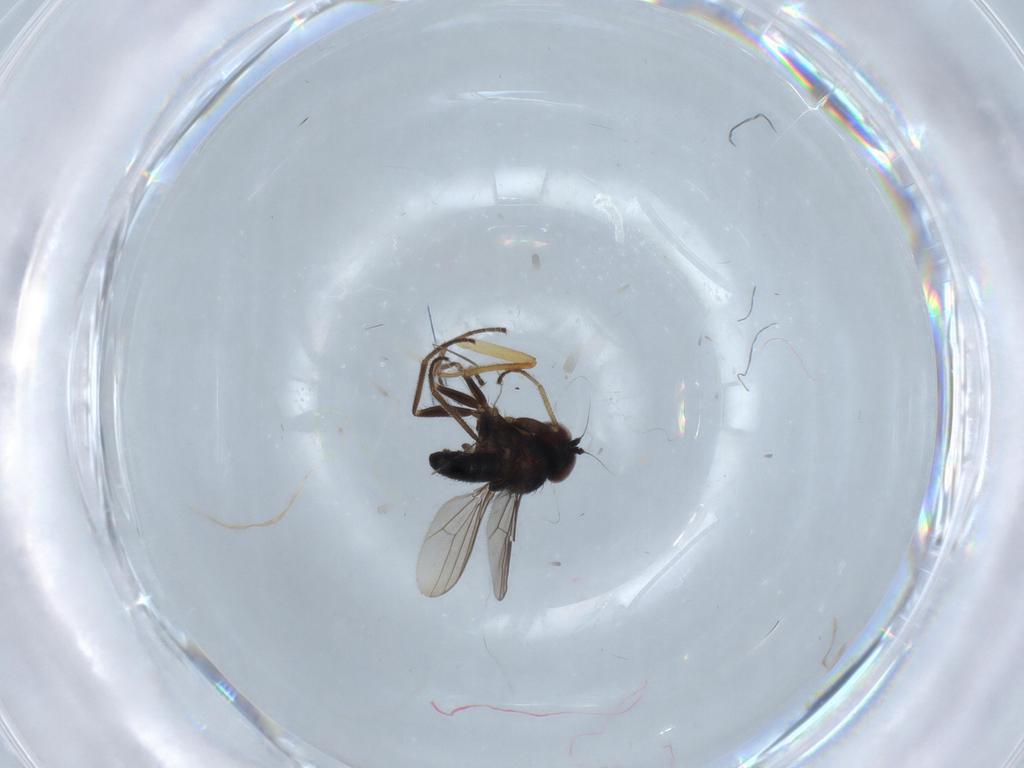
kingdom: Animalia
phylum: Arthropoda
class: Insecta
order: Diptera
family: Dolichopodidae
